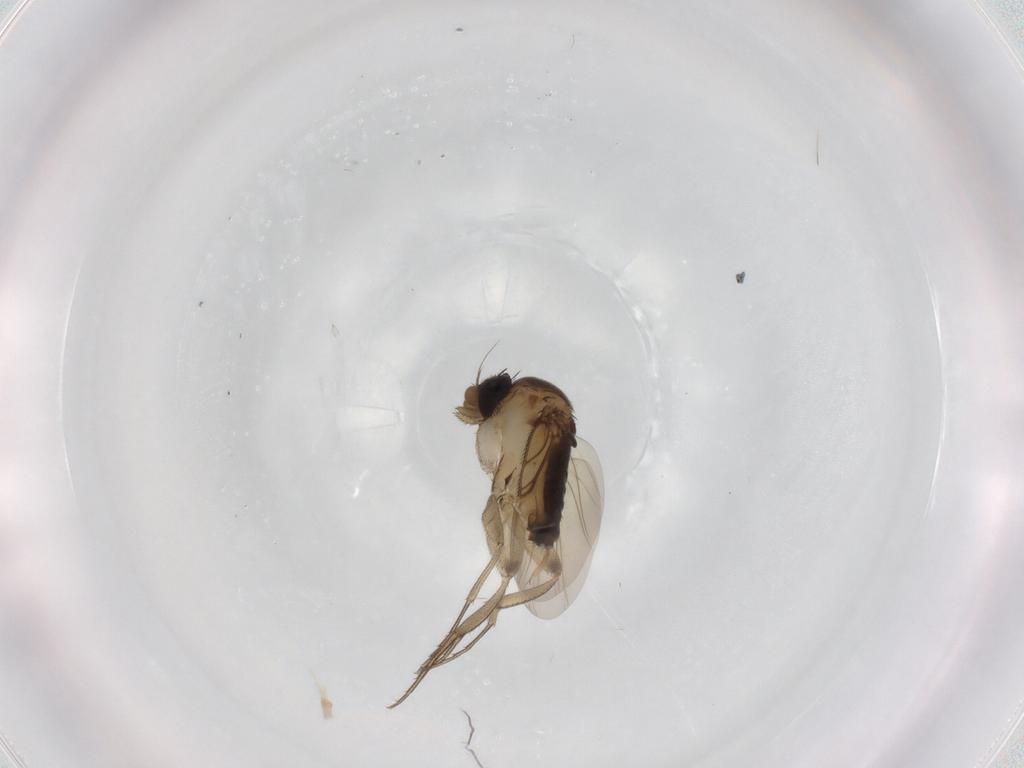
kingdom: Animalia
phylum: Arthropoda
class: Insecta
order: Diptera
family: Phoridae
